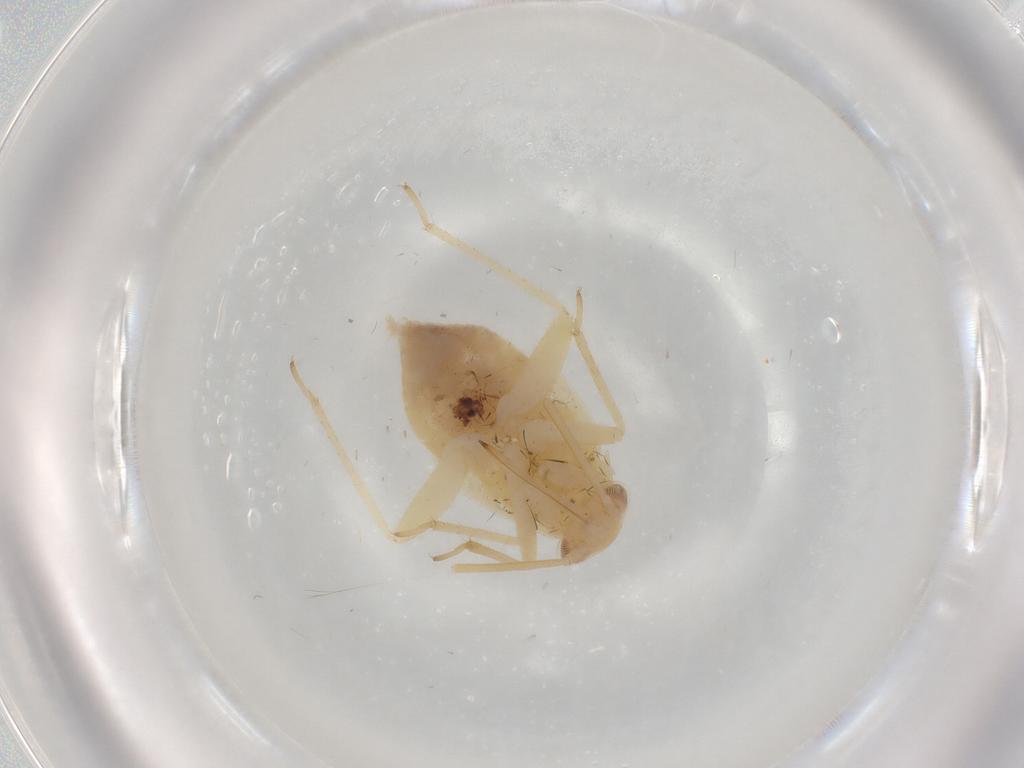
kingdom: Animalia
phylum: Arthropoda
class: Insecta
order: Hemiptera
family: Miridae
